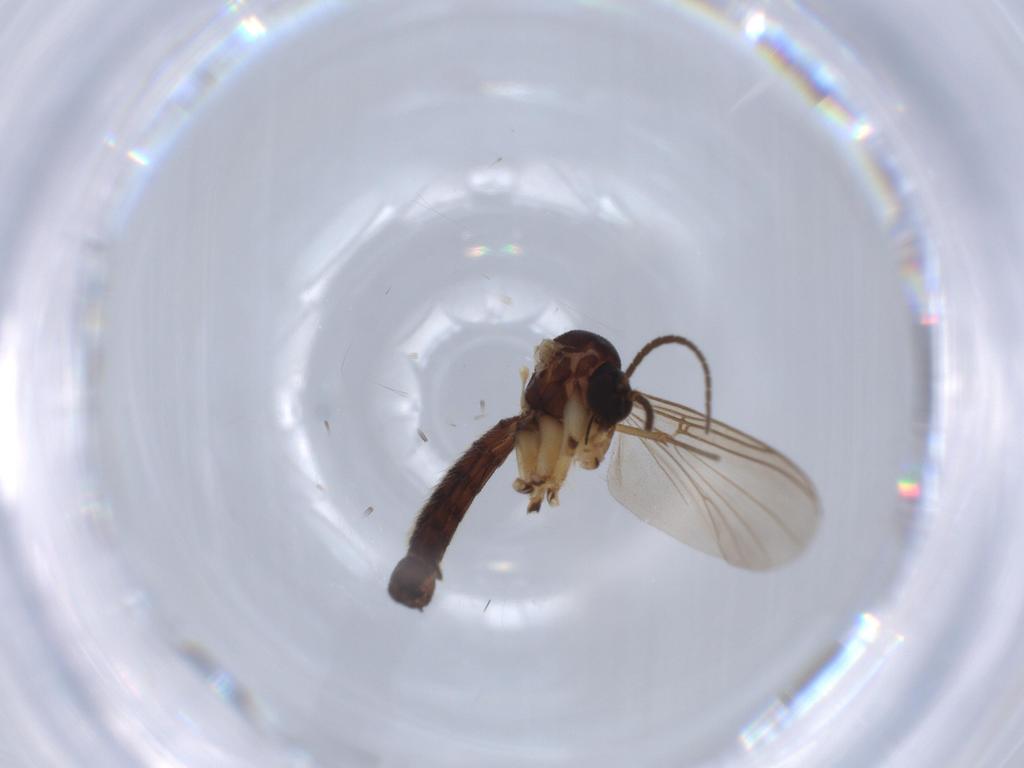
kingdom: Animalia
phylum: Arthropoda
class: Insecta
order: Diptera
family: Mycetophilidae
